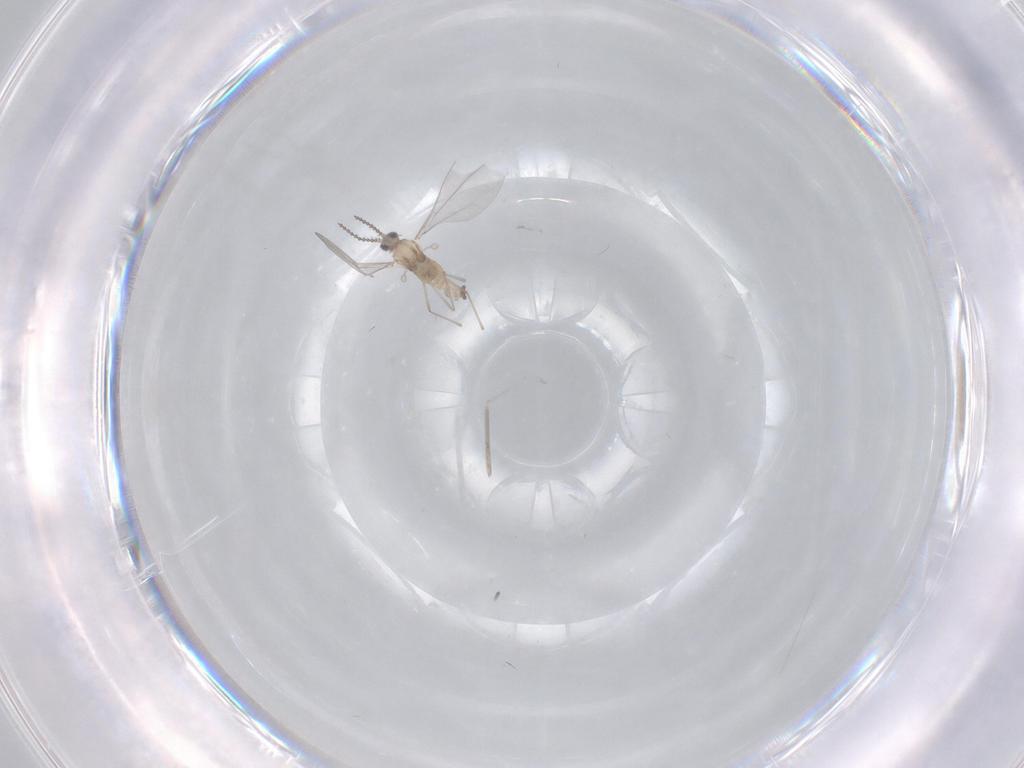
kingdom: Animalia
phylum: Arthropoda
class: Insecta
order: Diptera
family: Cecidomyiidae
